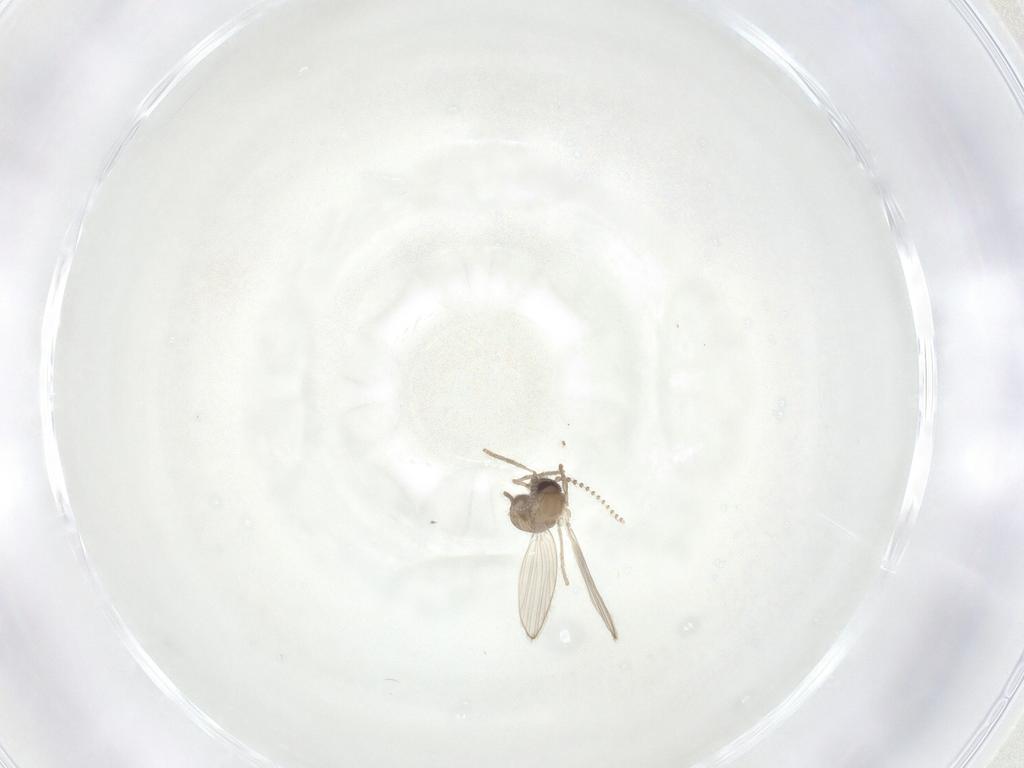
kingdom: Animalia
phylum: Arthropoda
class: Insecta
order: Diptera
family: Psychodidae
